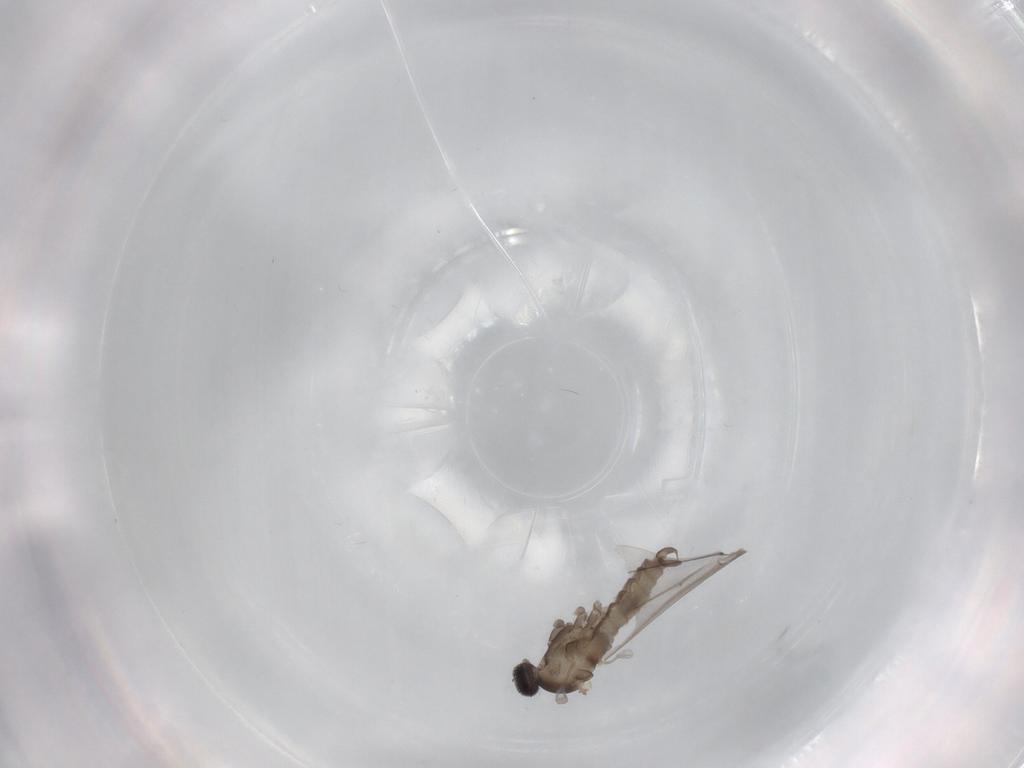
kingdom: Animalia
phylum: Arthropoda
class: Insecta
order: Diptera
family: Cecidomyiidae
